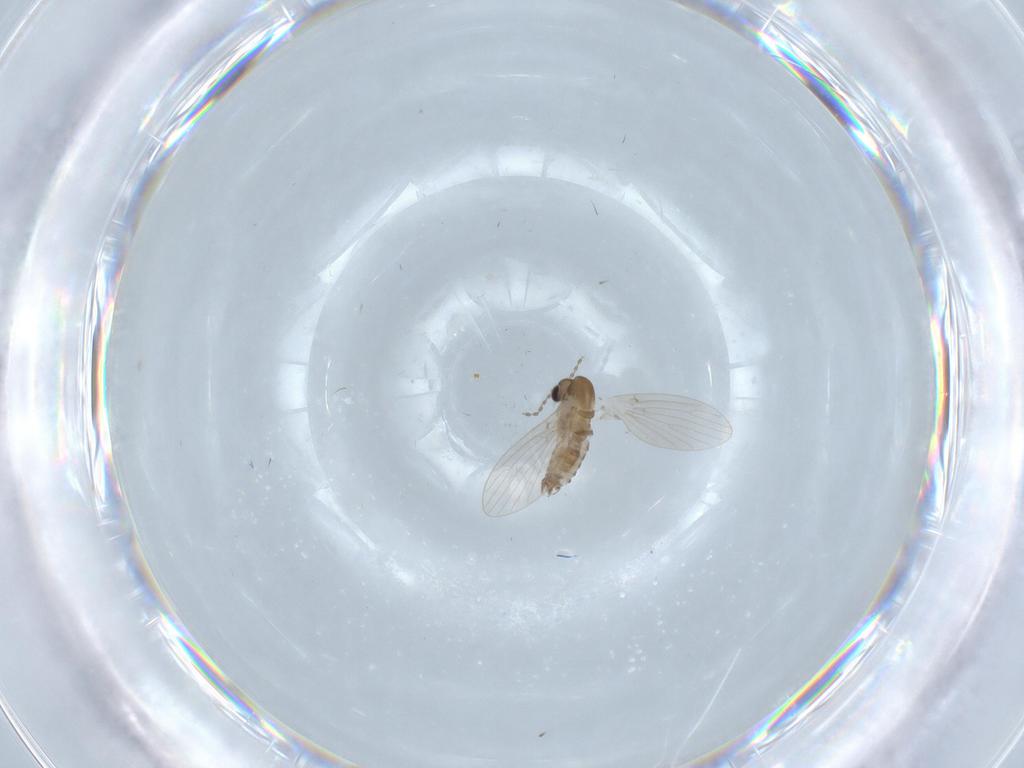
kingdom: Animalia
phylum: Arthropoda
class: Insecta
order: Diptera
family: Psychodidae
